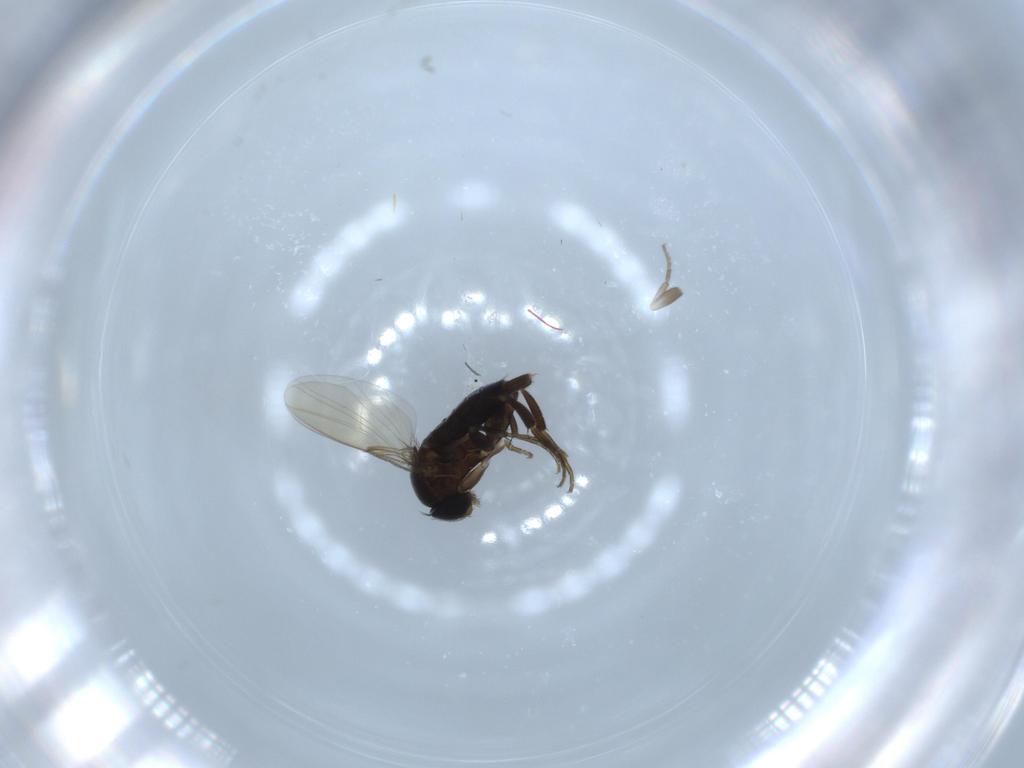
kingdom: Animalia
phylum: Arthropoda
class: Insecta
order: Diptera
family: Phoridae
